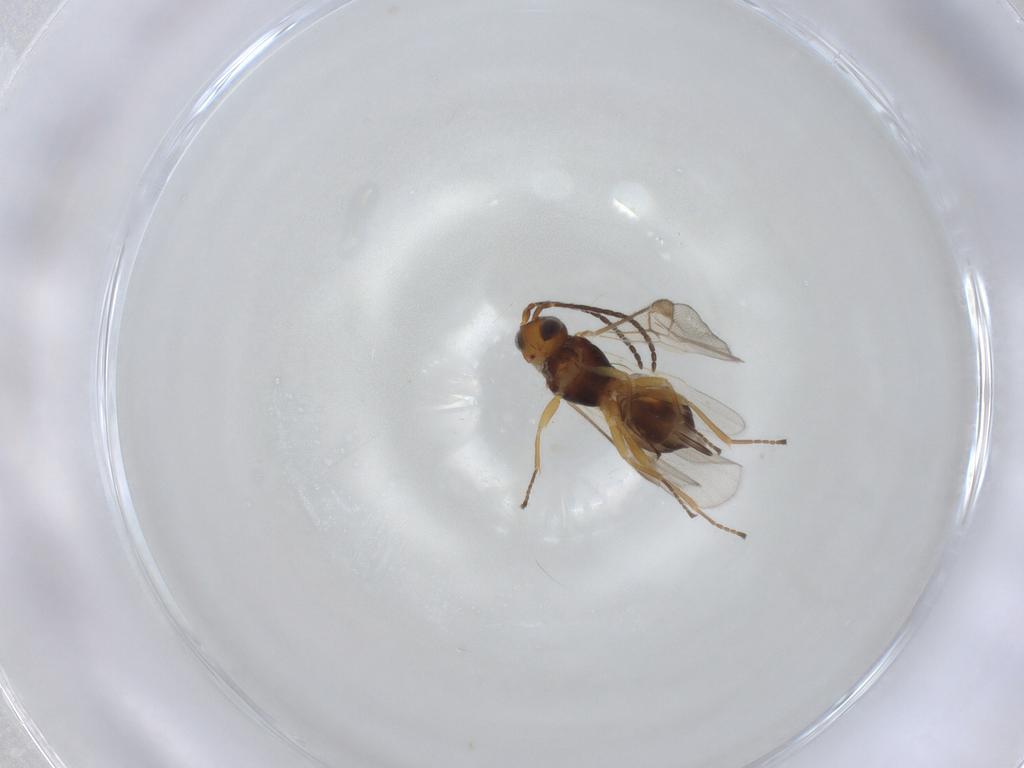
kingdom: Animalia
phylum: Arthropoda
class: Insecta
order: Hymenoptera
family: Braconidae
